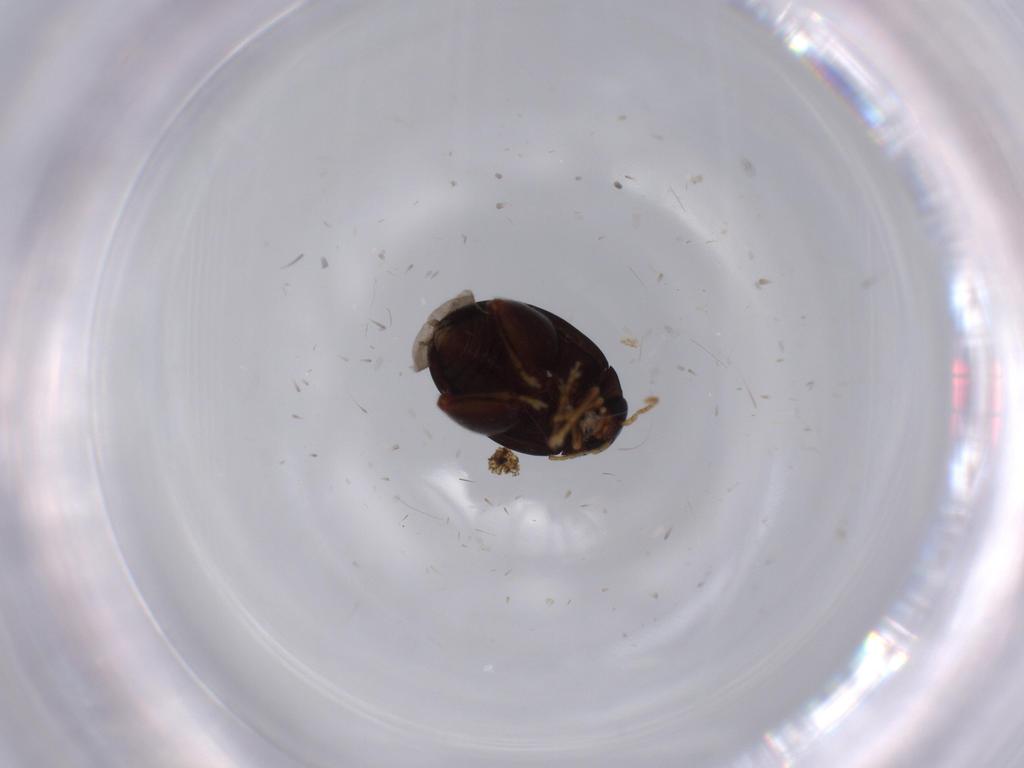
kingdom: Animalia
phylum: Arthropoda
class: Insecta
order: Coleoptera
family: Chrysomelidae
